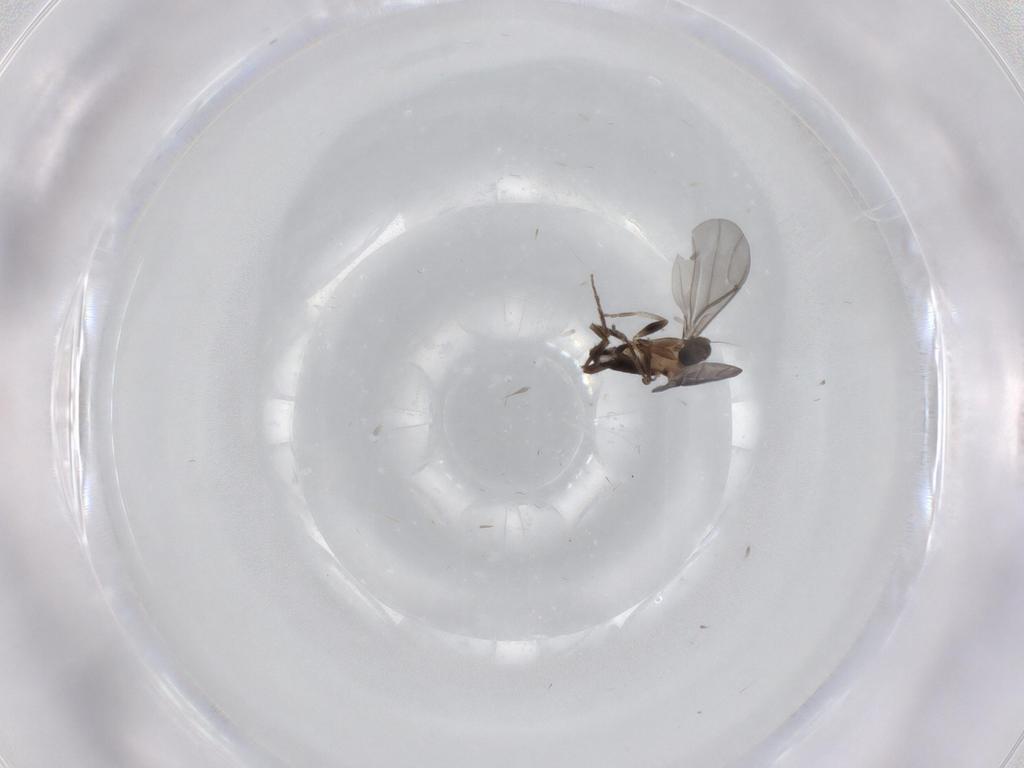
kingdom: Animalia
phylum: Arthropoda
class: Insecta
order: Diptera
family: Phoridae
